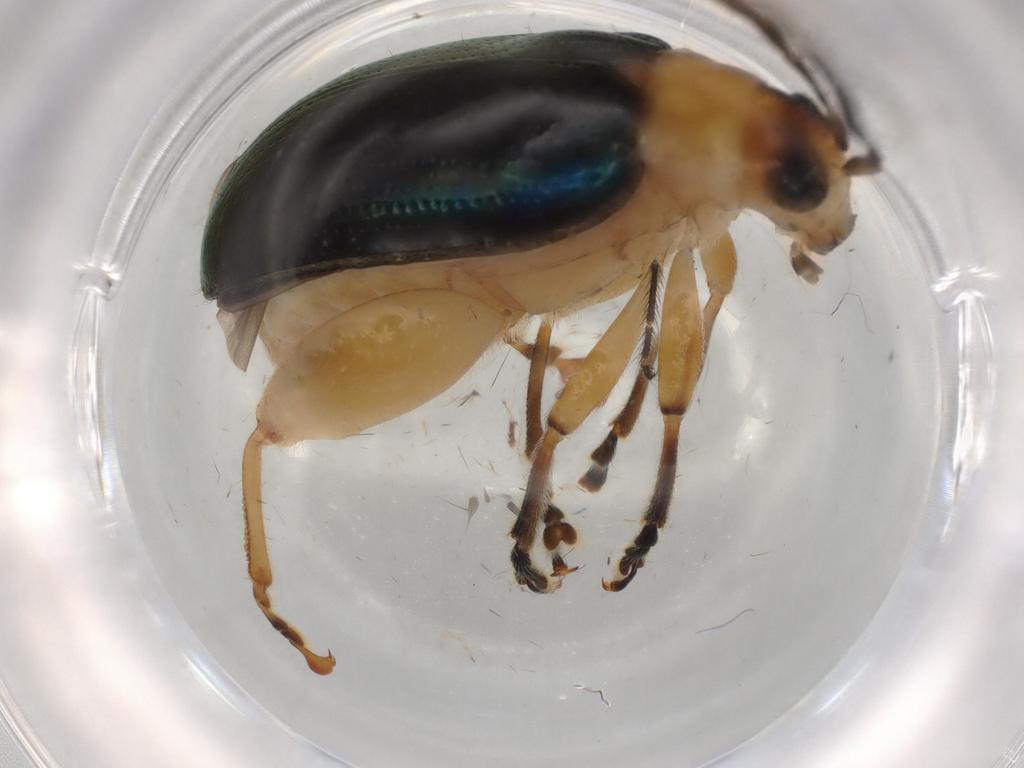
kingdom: Animalia
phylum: Arthropoda
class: Insecta
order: Coleoptera
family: Chrysomelidae
